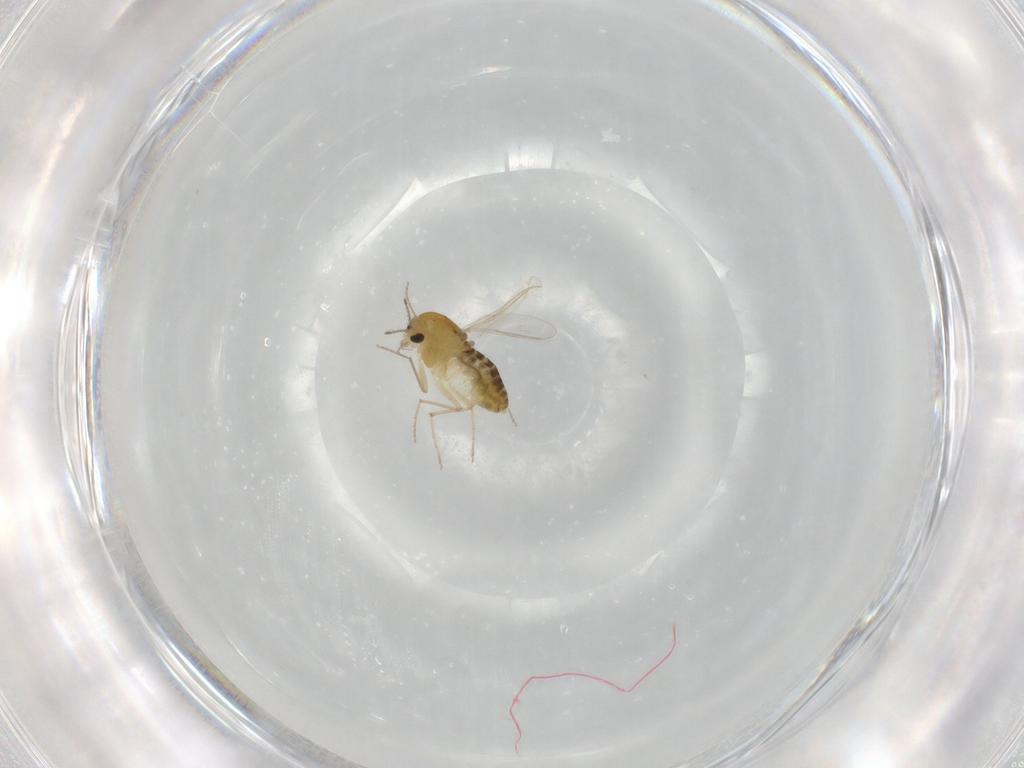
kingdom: Animalia
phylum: Arthropoda
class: Insecta
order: Diptera
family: Chironomidae
